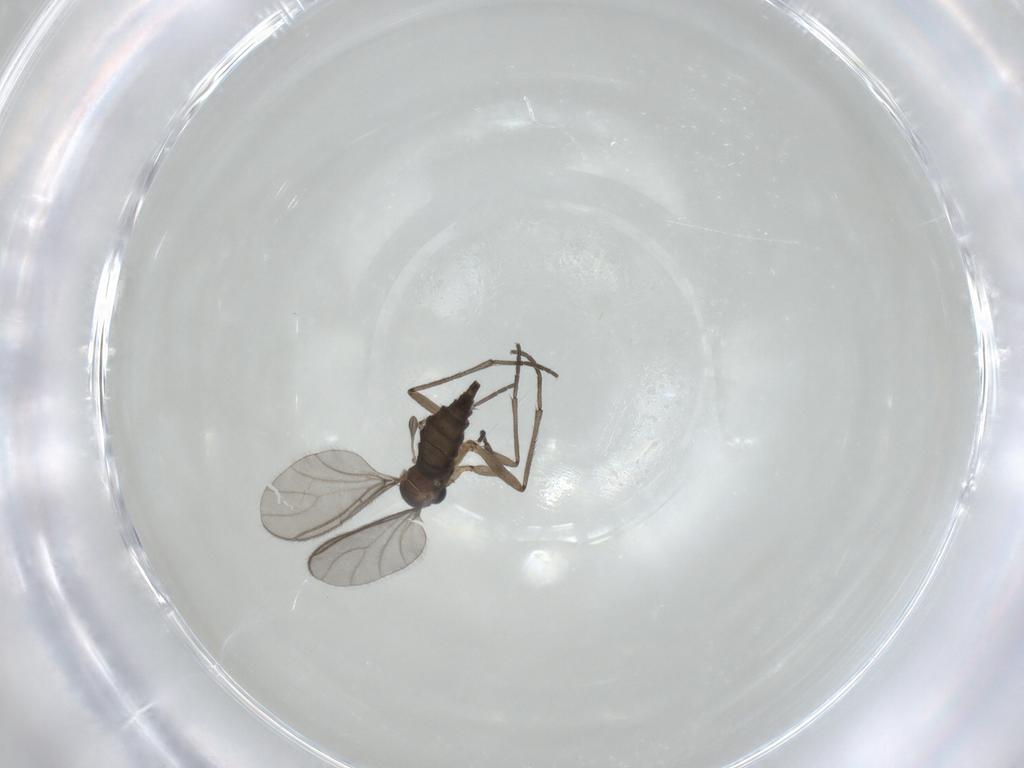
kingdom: Animalia
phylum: Arthropoda
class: Insecta
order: Diptera
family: Sciaridae
